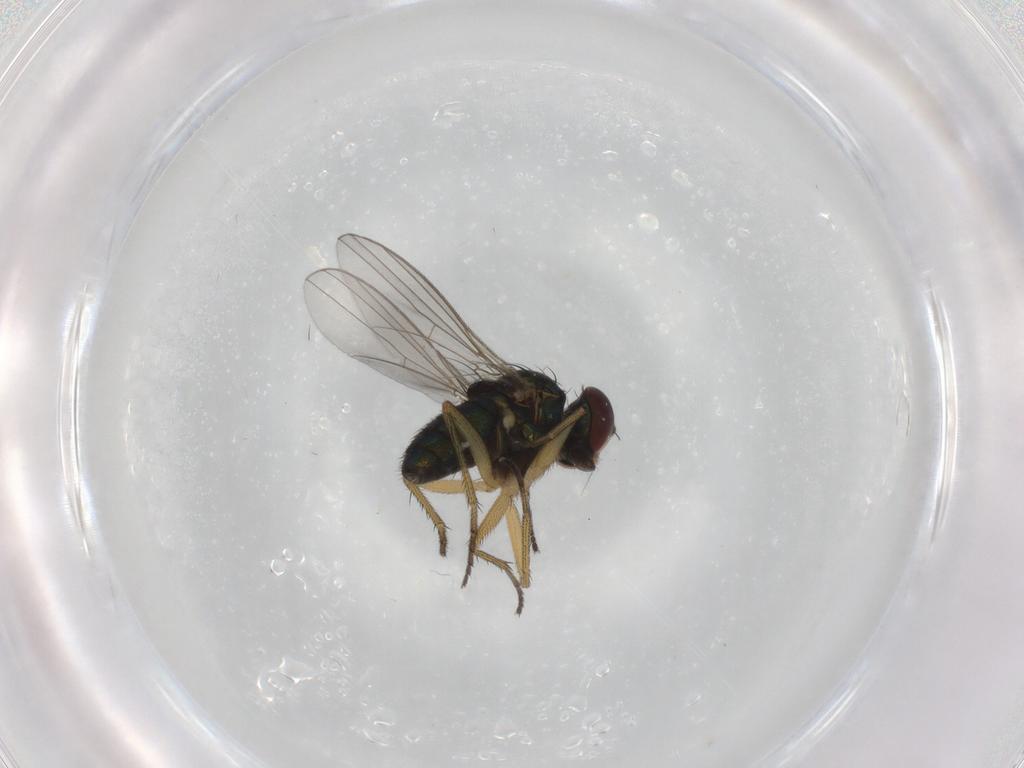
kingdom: Animalia
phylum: Arthropoda
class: Insecta
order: Diptera
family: Dolichopodidae
